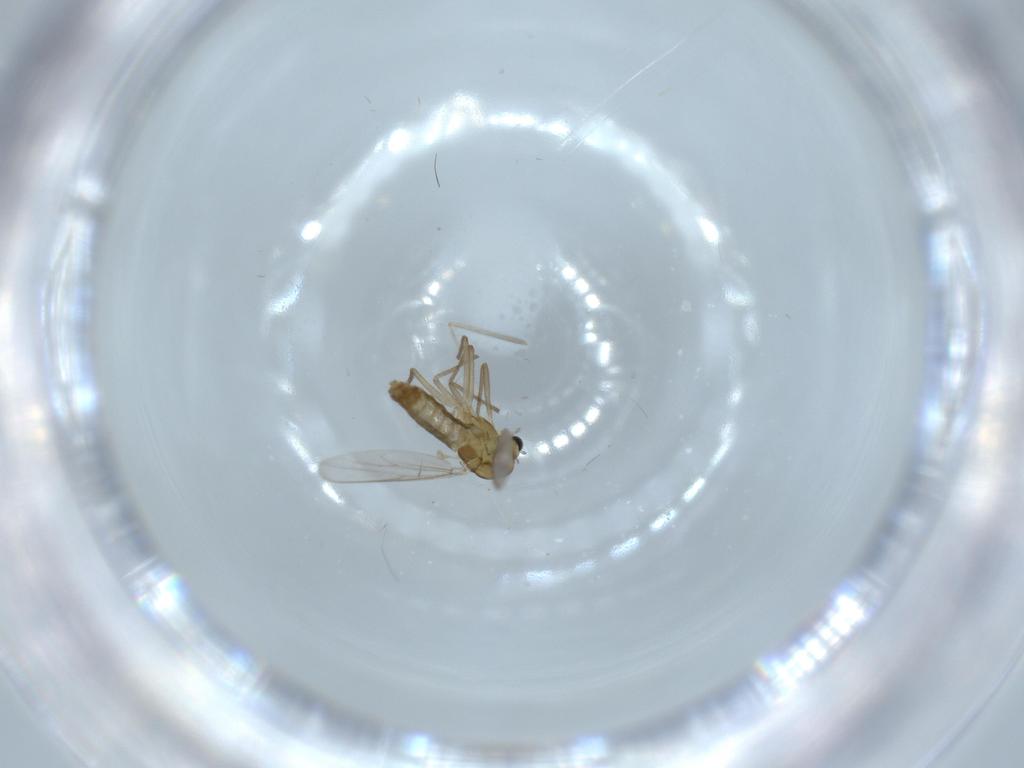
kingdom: Animalia
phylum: Arthropoda
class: Insecta
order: Diptera
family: Chironomidae
